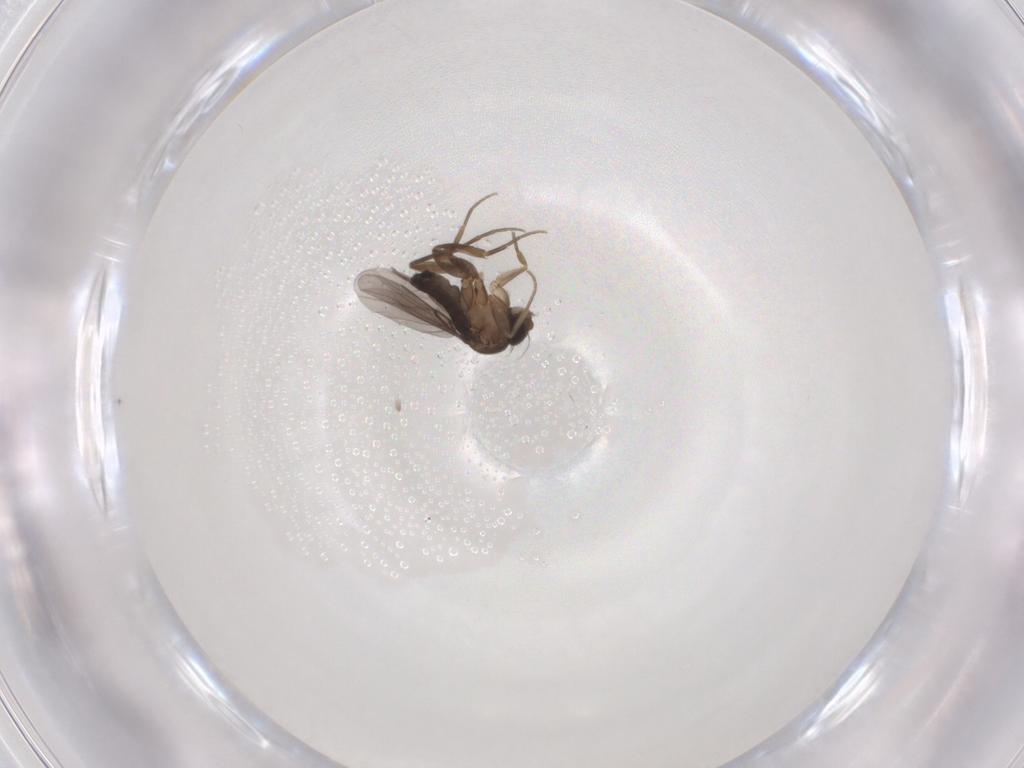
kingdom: Animalia
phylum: Arthropoda
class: Insecta
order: Diptera
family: Phoridae
